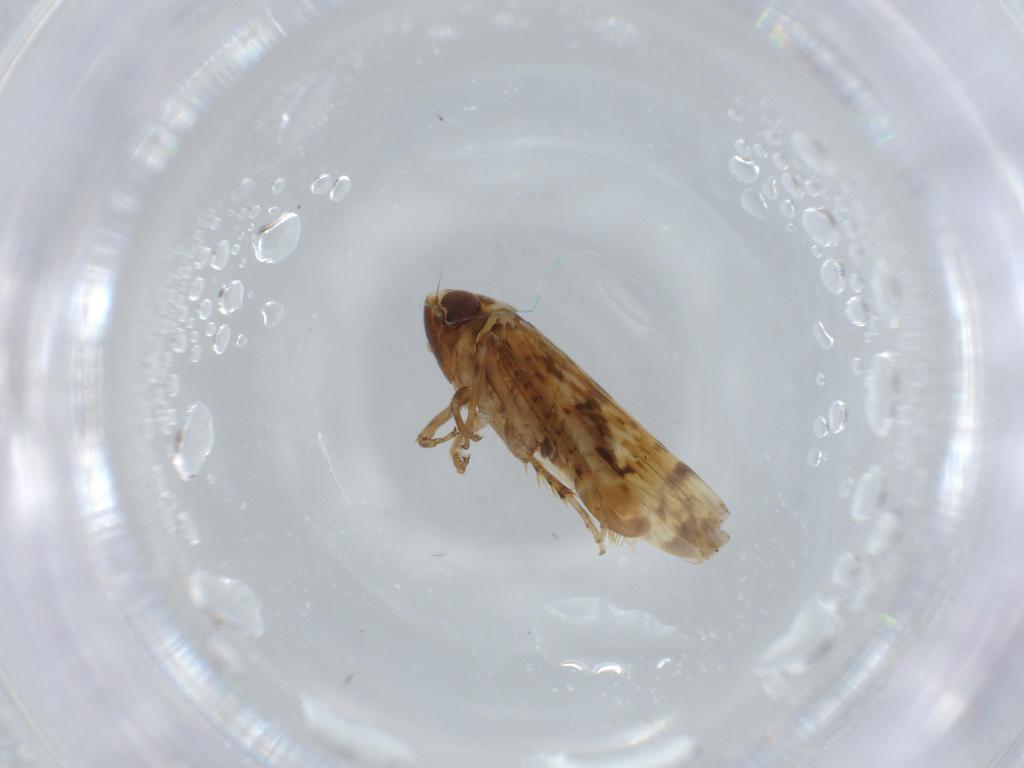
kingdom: Animalia
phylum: Arthropoda
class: Insecta
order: Hemiptera
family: Cicadellidae
